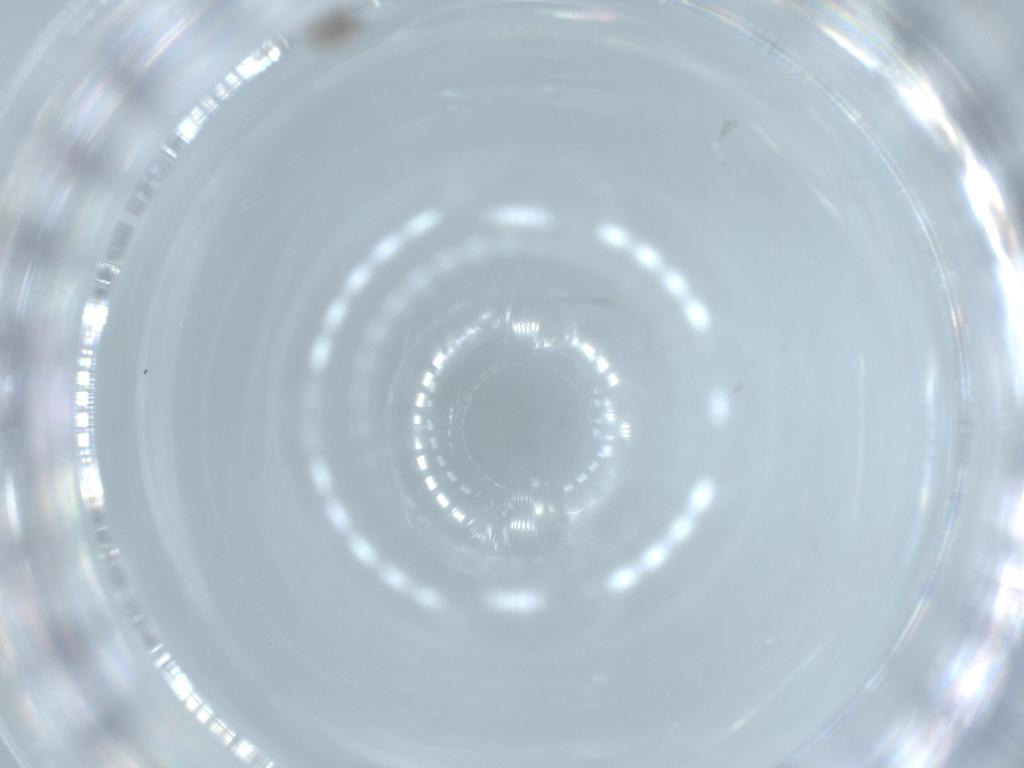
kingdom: Animalia
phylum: Arthropoda
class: Insecta
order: Diptera
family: Cecidomyiidae
